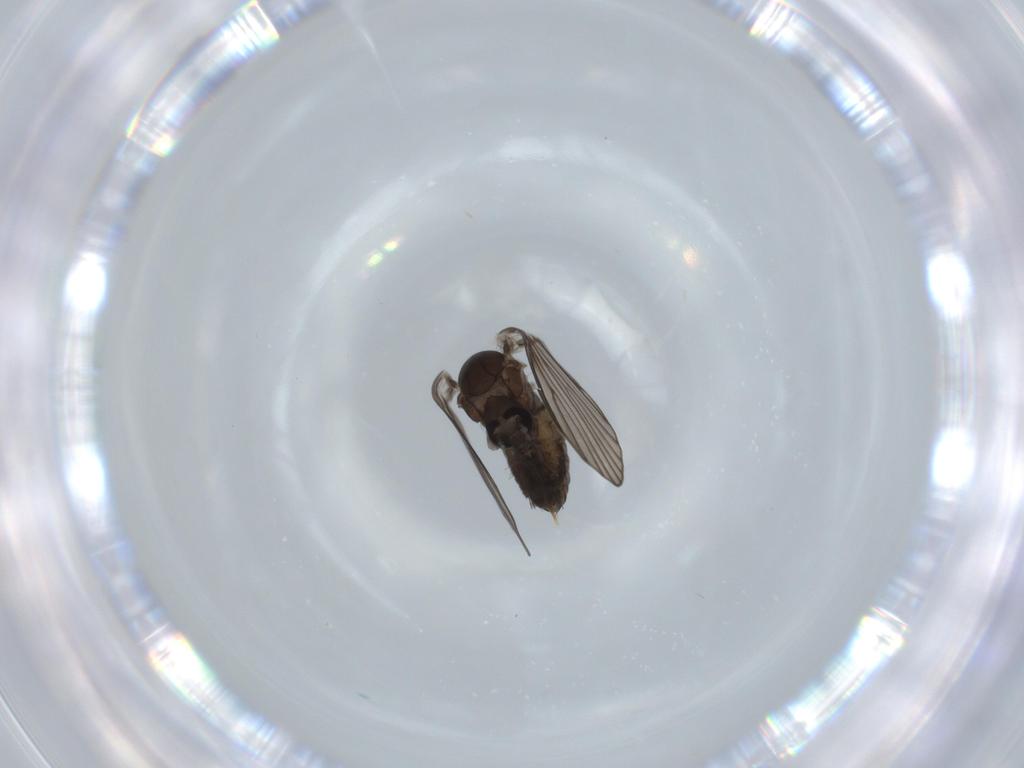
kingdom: Animalia
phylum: Arthropoda
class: Insecta
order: Diptera
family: Psychodidae
